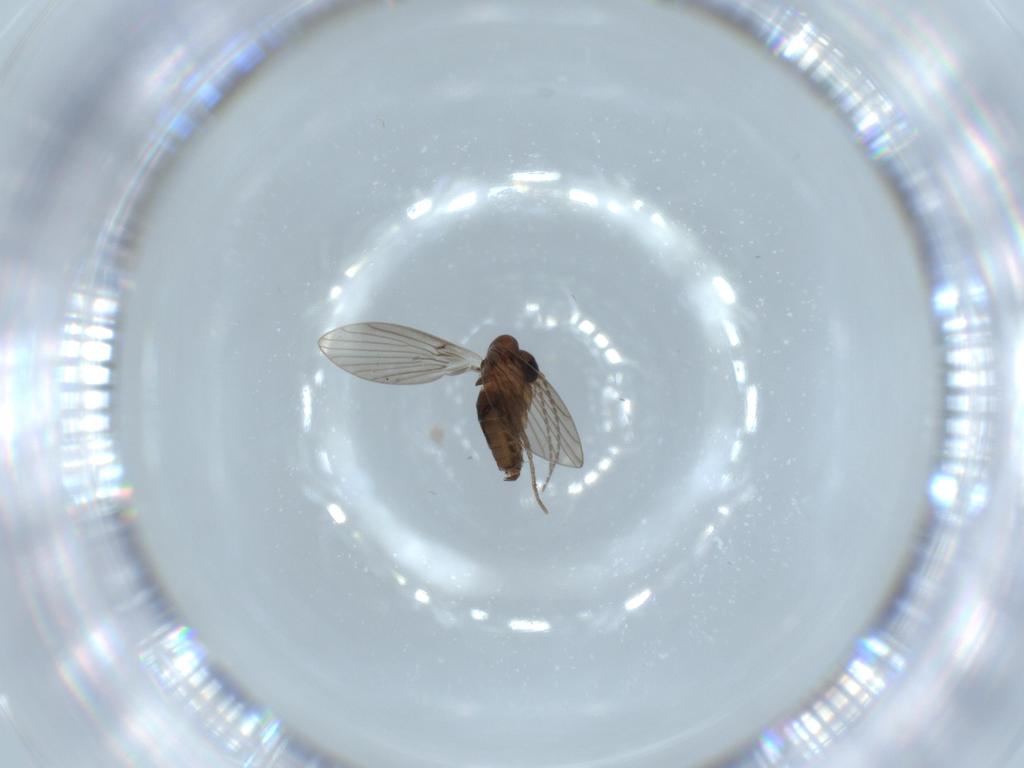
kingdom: Animalia
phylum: Arthropoda
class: Insecta
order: Diptera
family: Psychodidae
